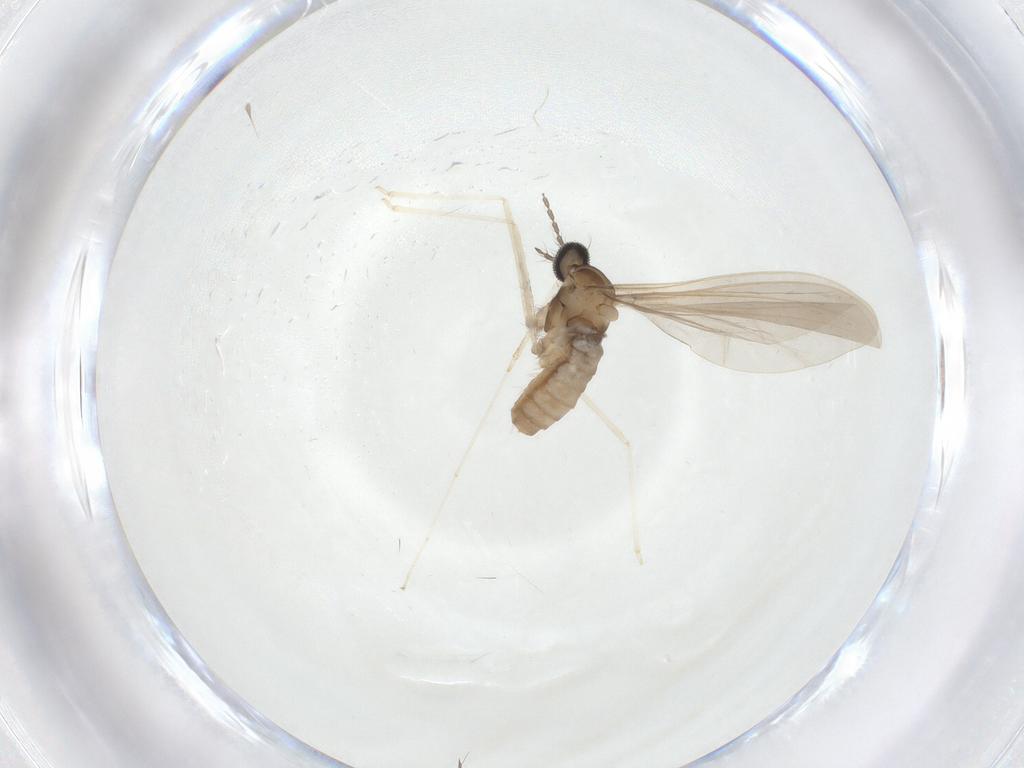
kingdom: Animalia
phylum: Arthropoda
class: Insecta
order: Diptera
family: Cecidomyiidae
